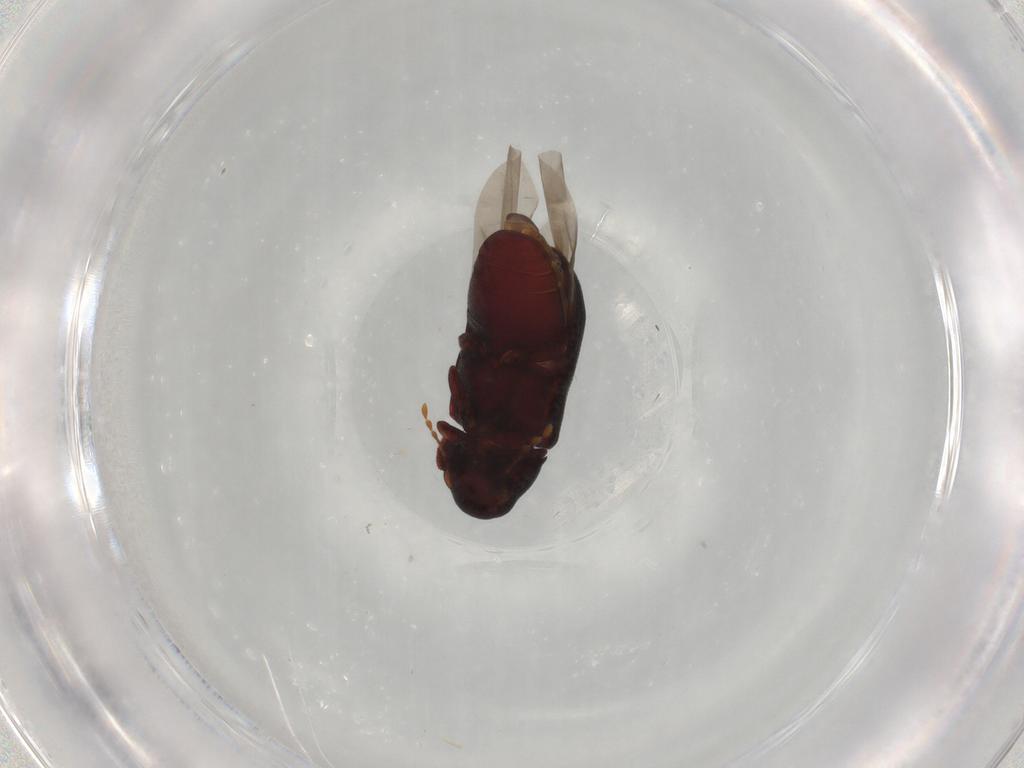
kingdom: Animalia
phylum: Arthropoda
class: Insecta
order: Coleoptera
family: Ptinidae
